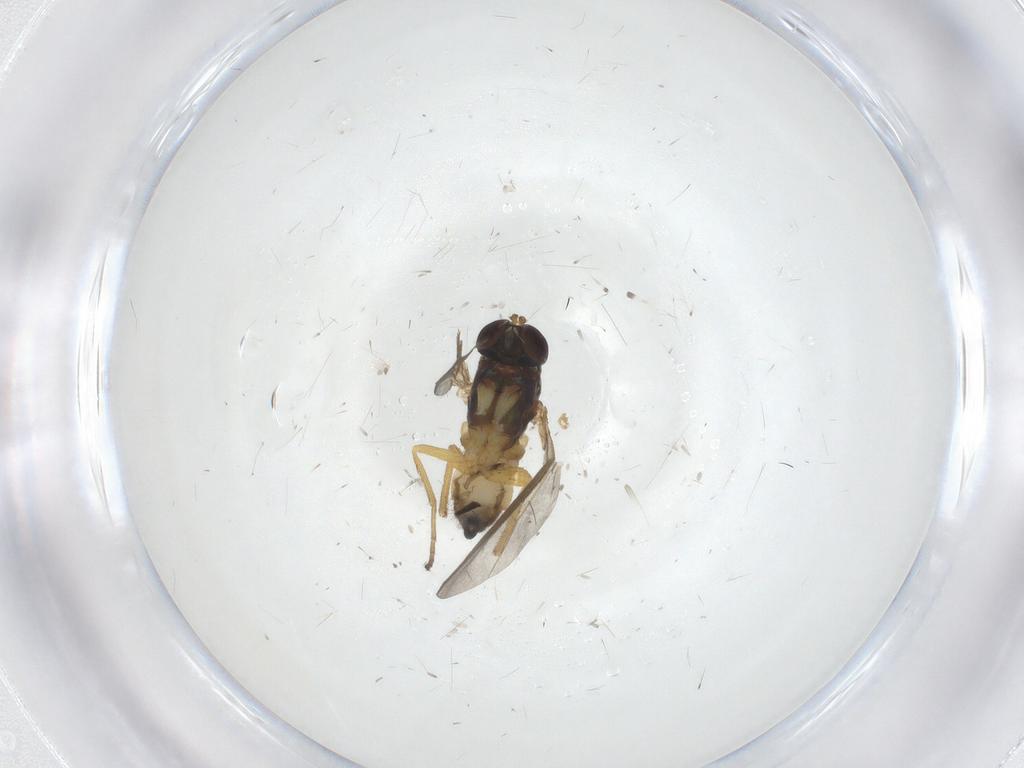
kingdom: Animalia
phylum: Arthropoda
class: Insecta
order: Diptera
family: Dolichopodidae
